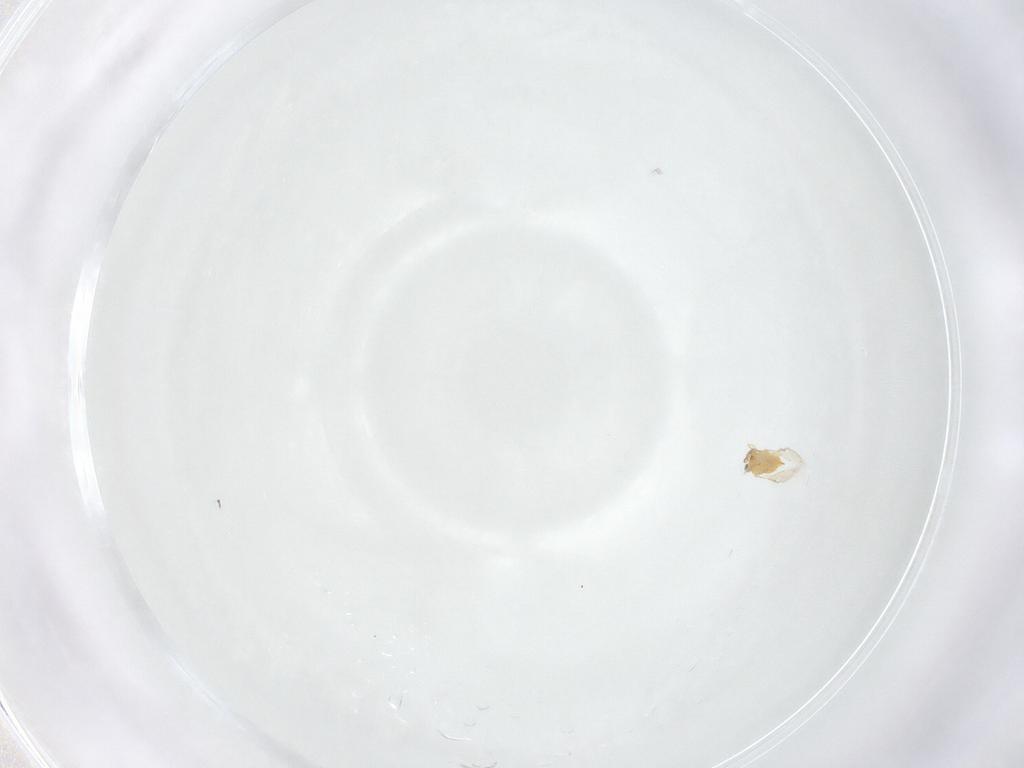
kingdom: Animalia
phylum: Arthropoda
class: Insecta
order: Hymenoptera
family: Aphelinidae
